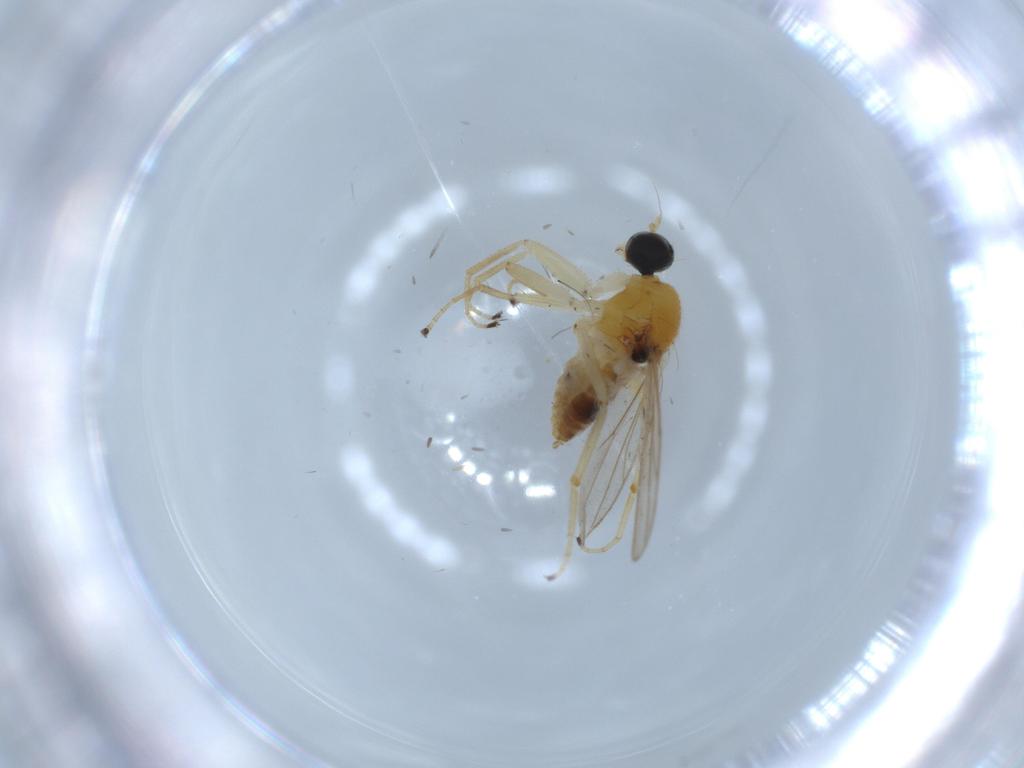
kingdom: Animalia
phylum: Arthropoda
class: Insecta
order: Diptera
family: Hybotidae
